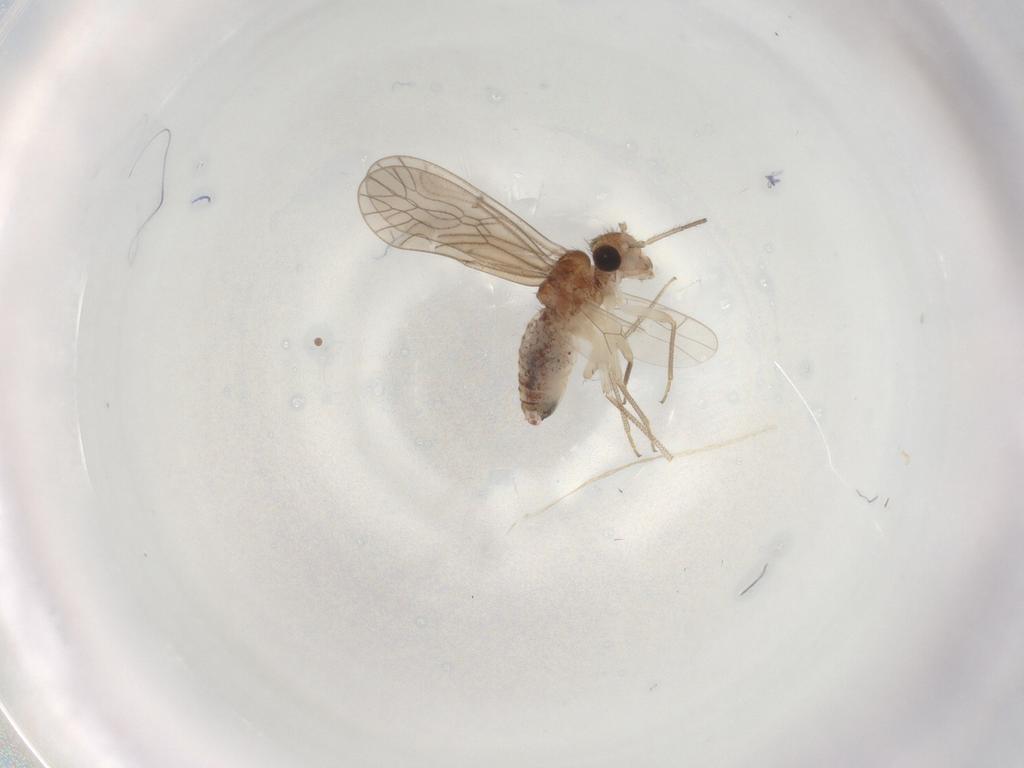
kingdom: Animalia
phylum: Arthropoda
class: Insecta
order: Psocodea
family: Caeciliusidae
